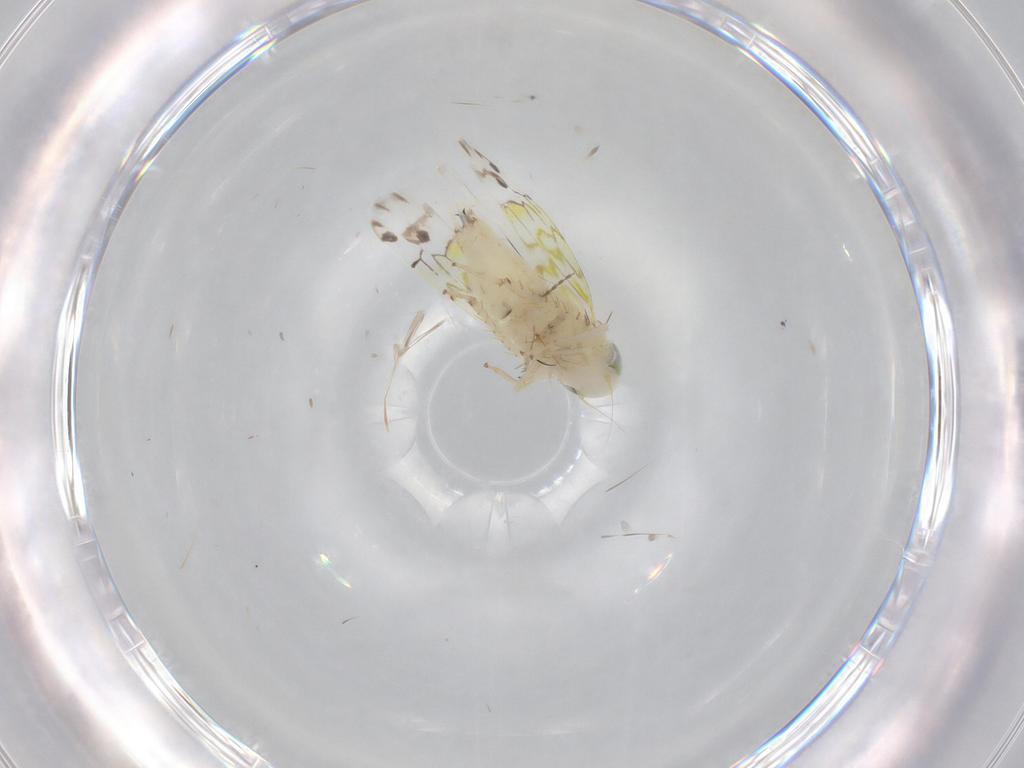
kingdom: Animalia
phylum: Arthropoda
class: Insecta
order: Hemiptera
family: Cicadellidae
